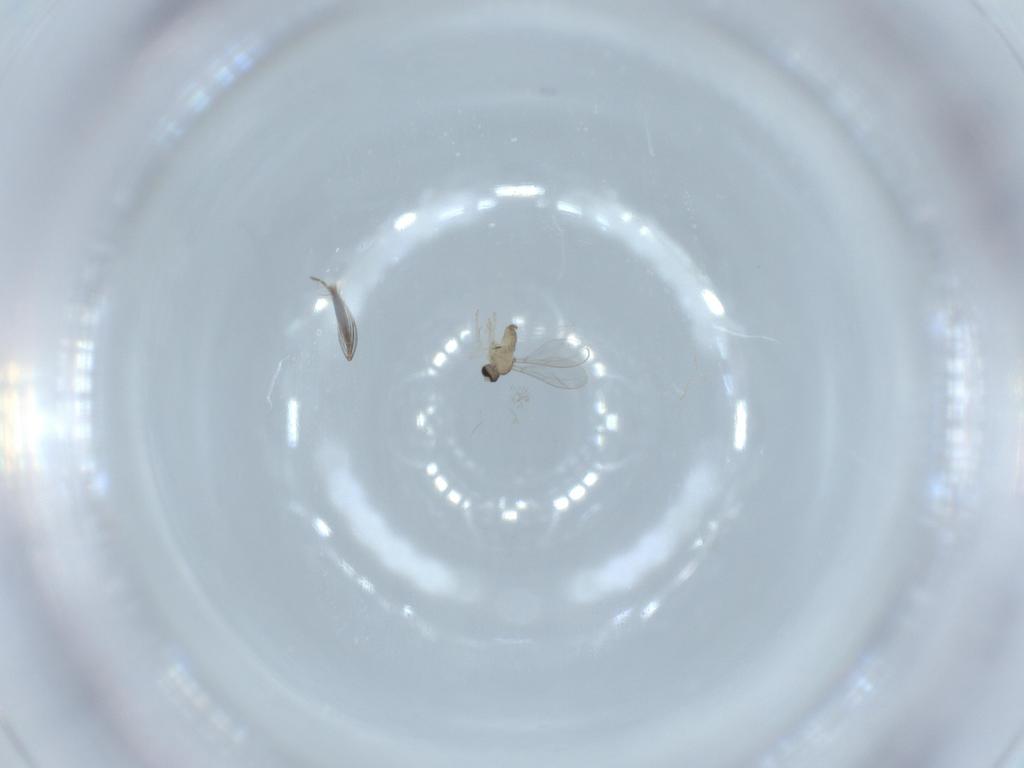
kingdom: Animalia
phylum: Arthropoda
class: Insecta
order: Diptera
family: Cecidomyiidae
